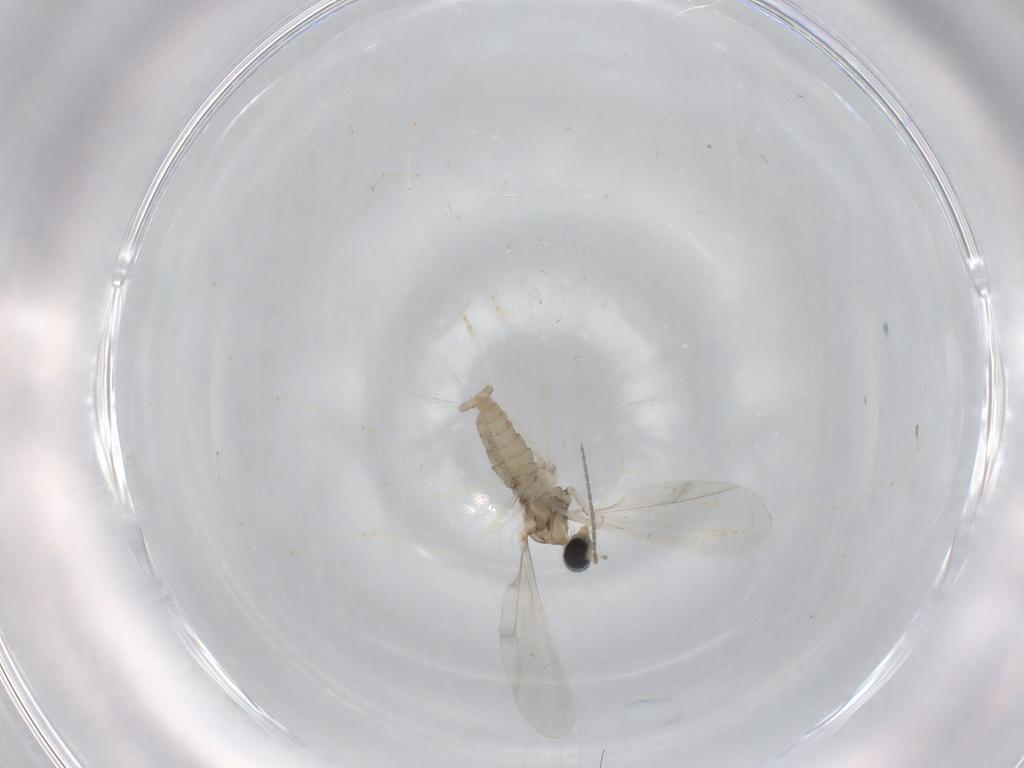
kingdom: Animalia
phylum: Arthropoda
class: Insecta
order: Diptera
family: Cecidomyiidae
